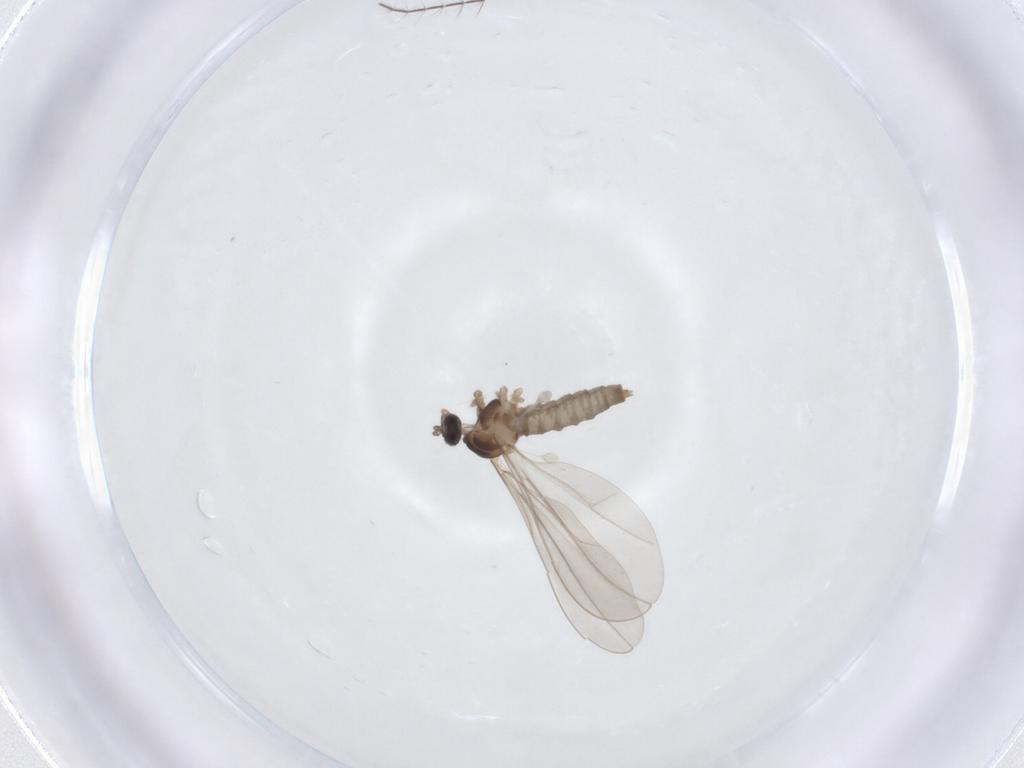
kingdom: Animalia
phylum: Arthropoda
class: Insecta
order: Diptera
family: Cecidomyiidae
